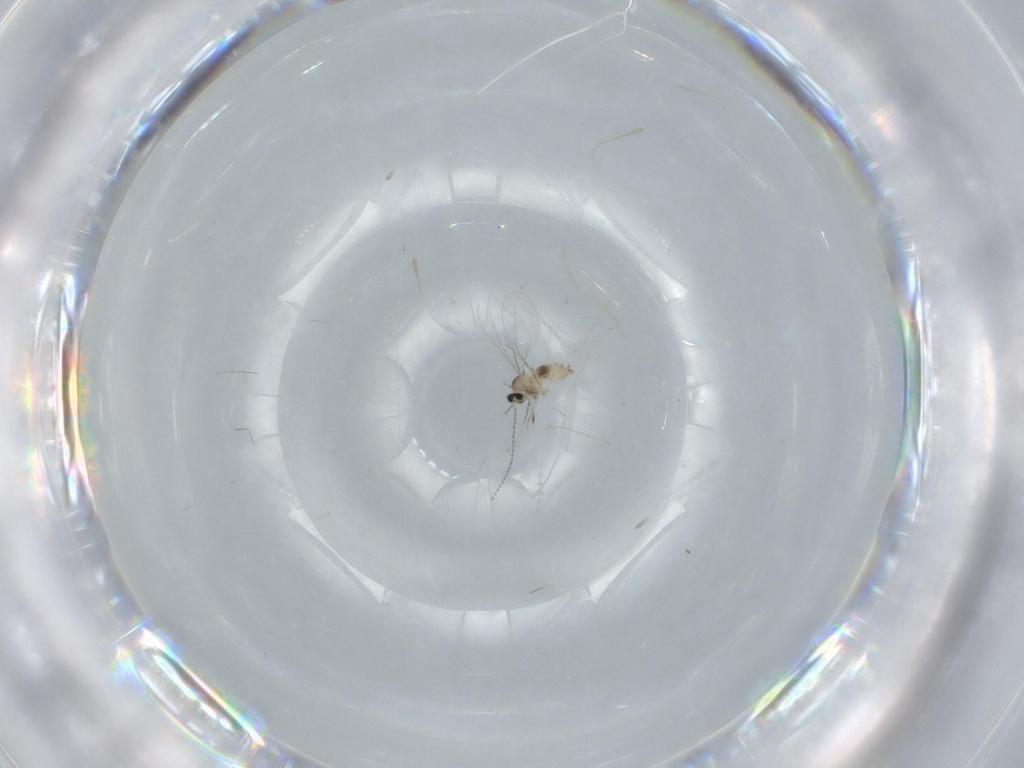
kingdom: Animalia
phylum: Arthropoda
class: Insecta
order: Diptera
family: Cecidomyiidae
